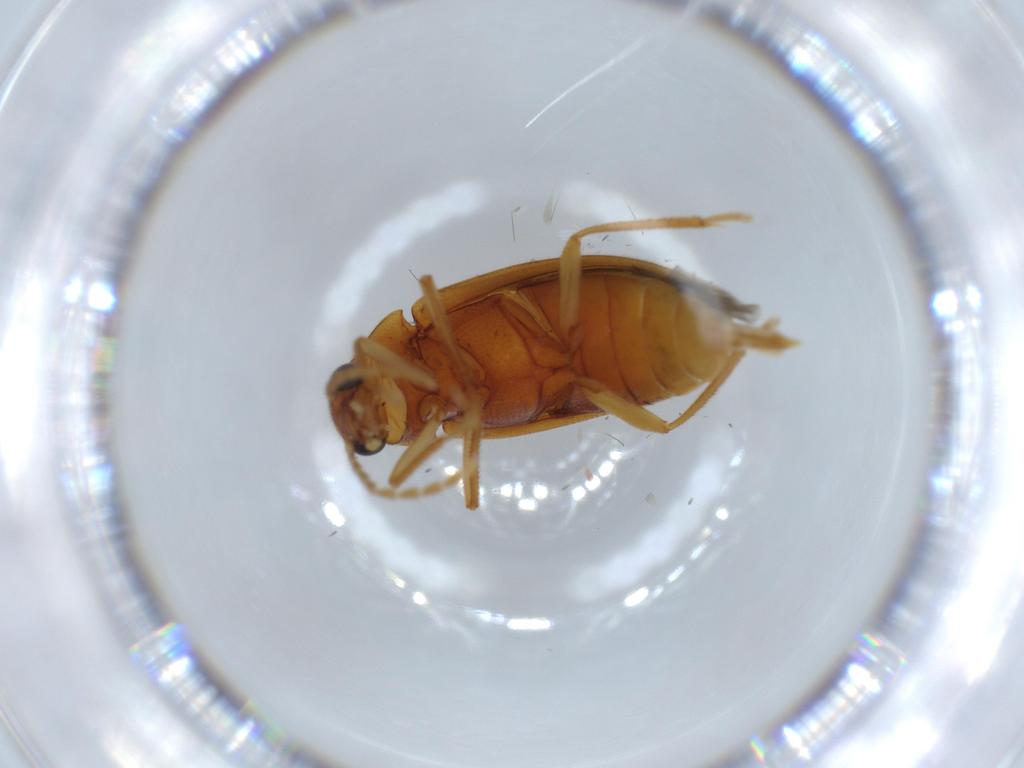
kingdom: Animalia
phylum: Arthropoda
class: Insecta
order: Coleoptera
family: Ptilodactylidae
